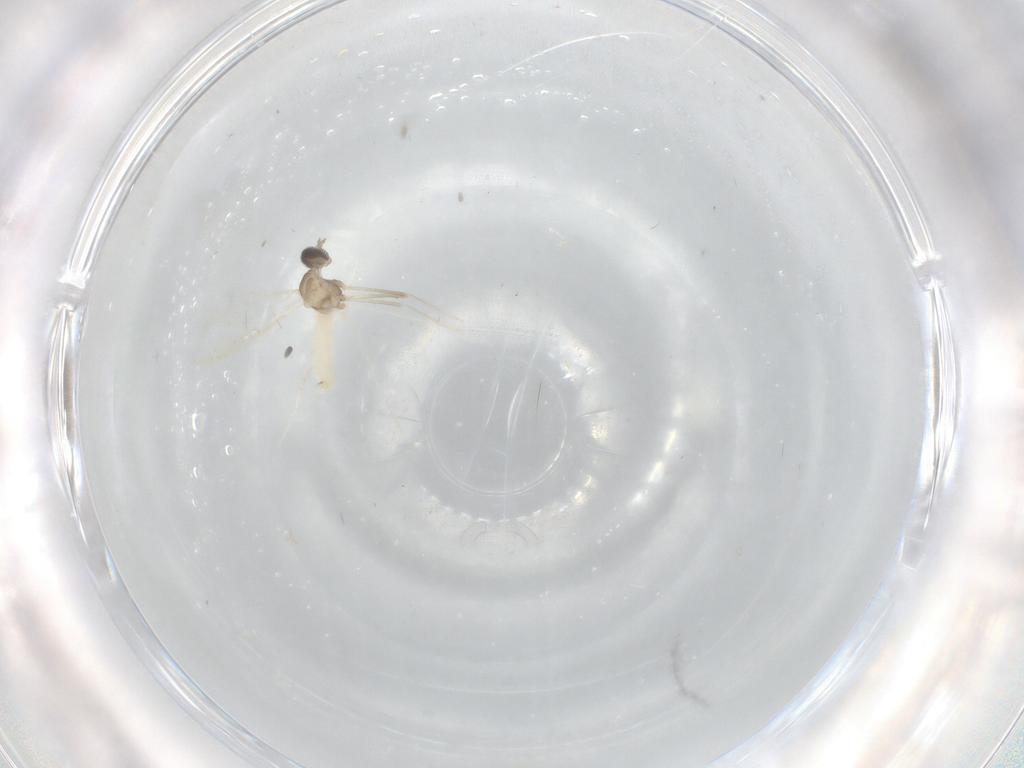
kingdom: Animalia
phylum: Arthropoda
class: Insecta
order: Diptera
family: Cecidomyiidae
